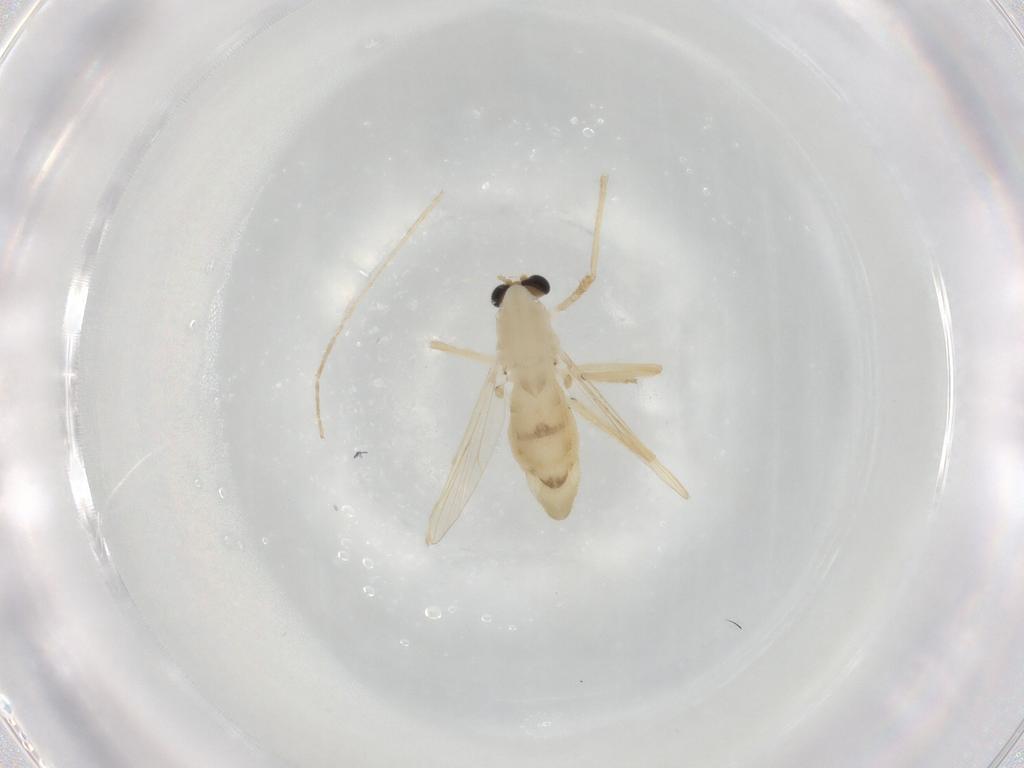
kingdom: Animalia
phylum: Arthropoda
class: Insecta
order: Diptera
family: Chironomidae
